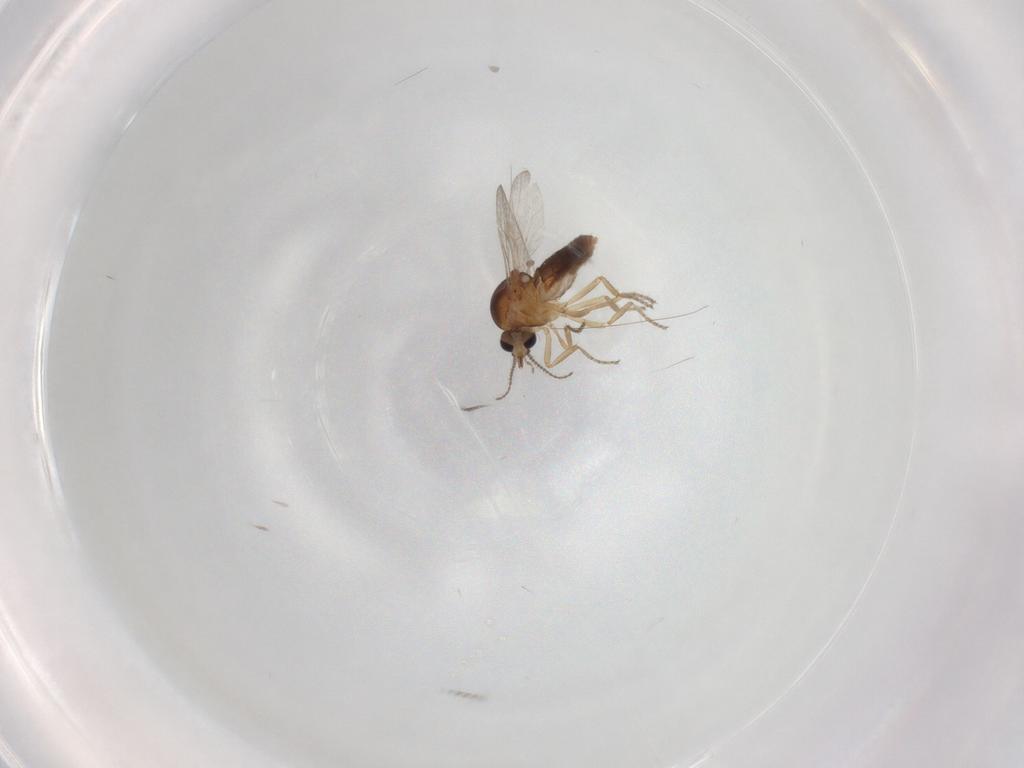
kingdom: Animalia
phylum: Arthropoda
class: Insecta
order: Diptera
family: Ceratopogonidae
